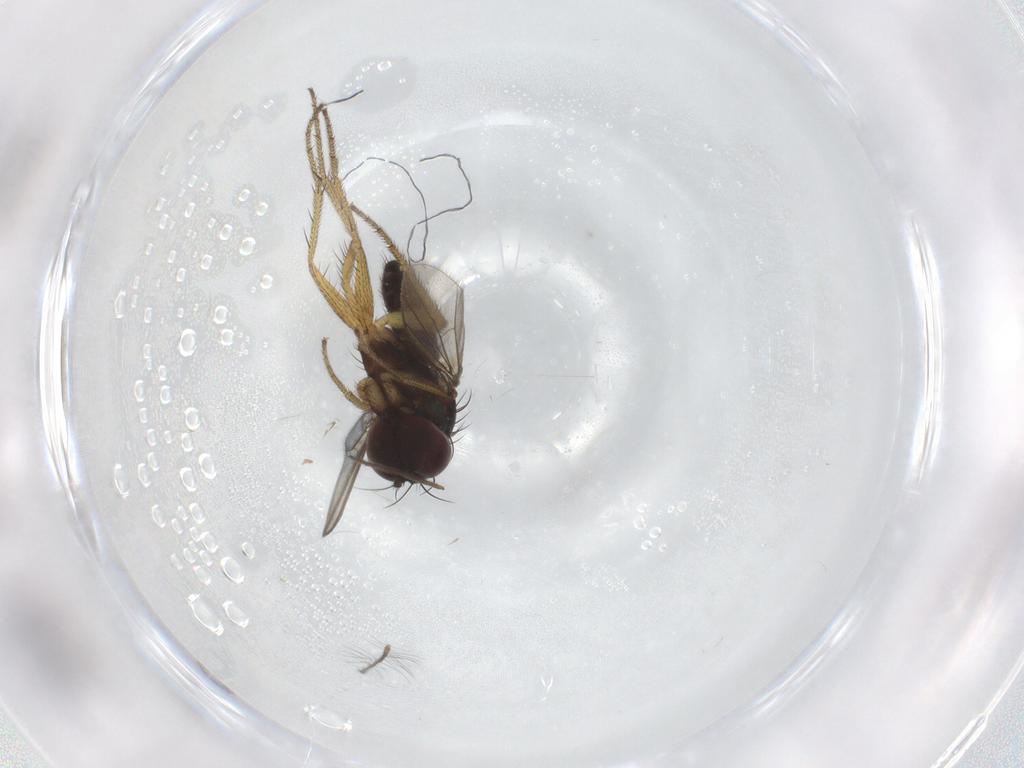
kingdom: Animalia
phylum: Arthropoda
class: Insecta
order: Diptera
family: Chironomidae
